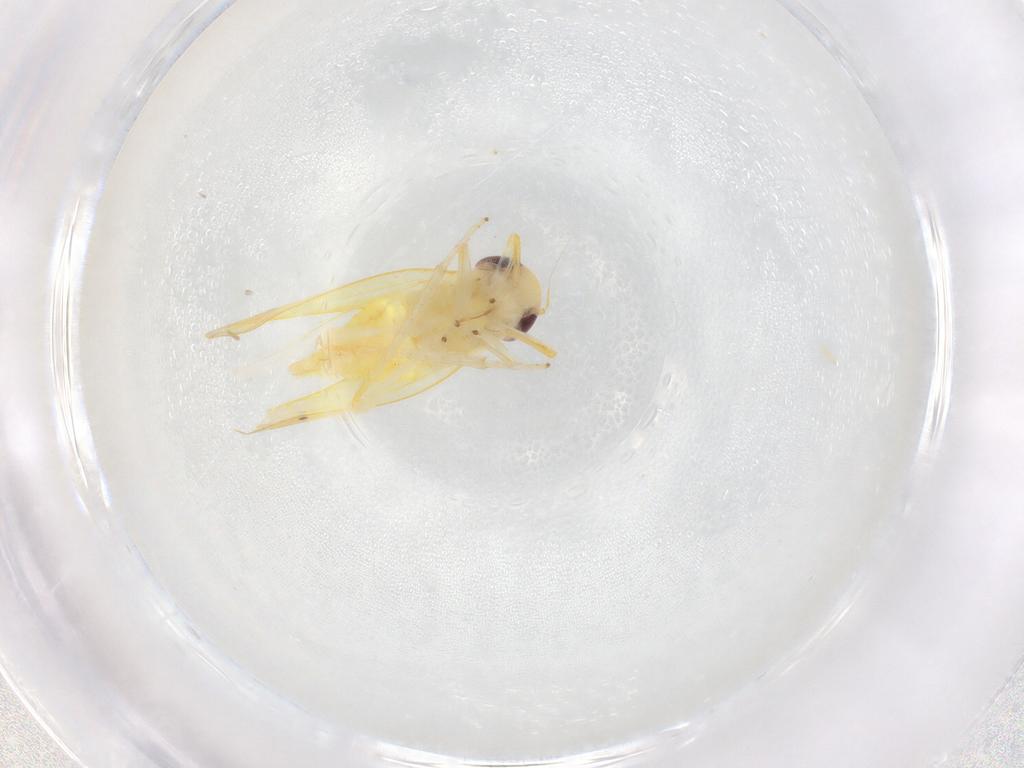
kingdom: Animalia
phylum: Arthropoda
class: Insecta
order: Hemiptera
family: Cicadellidae
